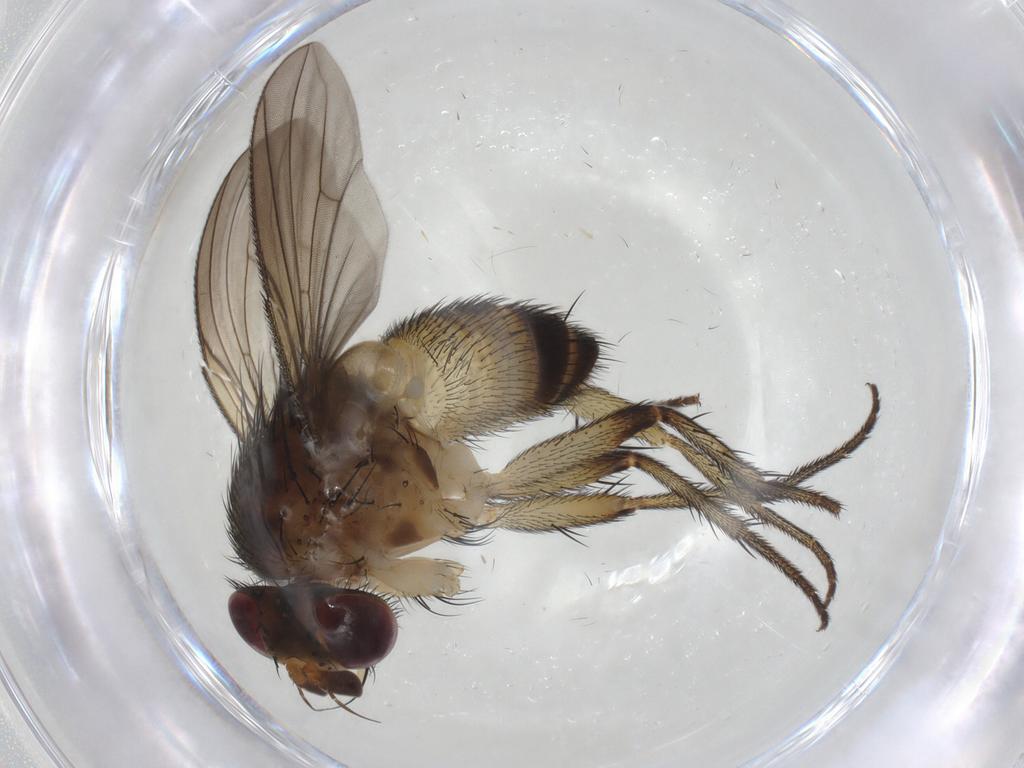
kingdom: Animalia
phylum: Arthropoda
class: Insecta
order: Diptera
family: Tachinidae
